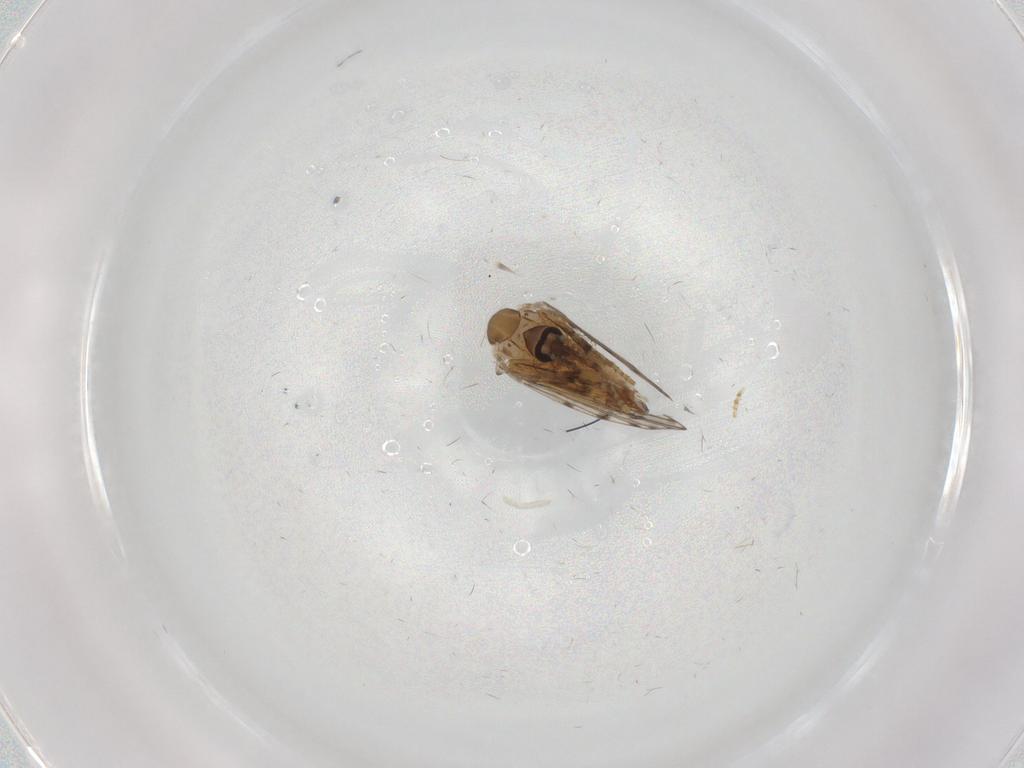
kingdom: Animalia
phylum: Arthropoda
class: Insecta
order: Diptera
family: Psychodidae
